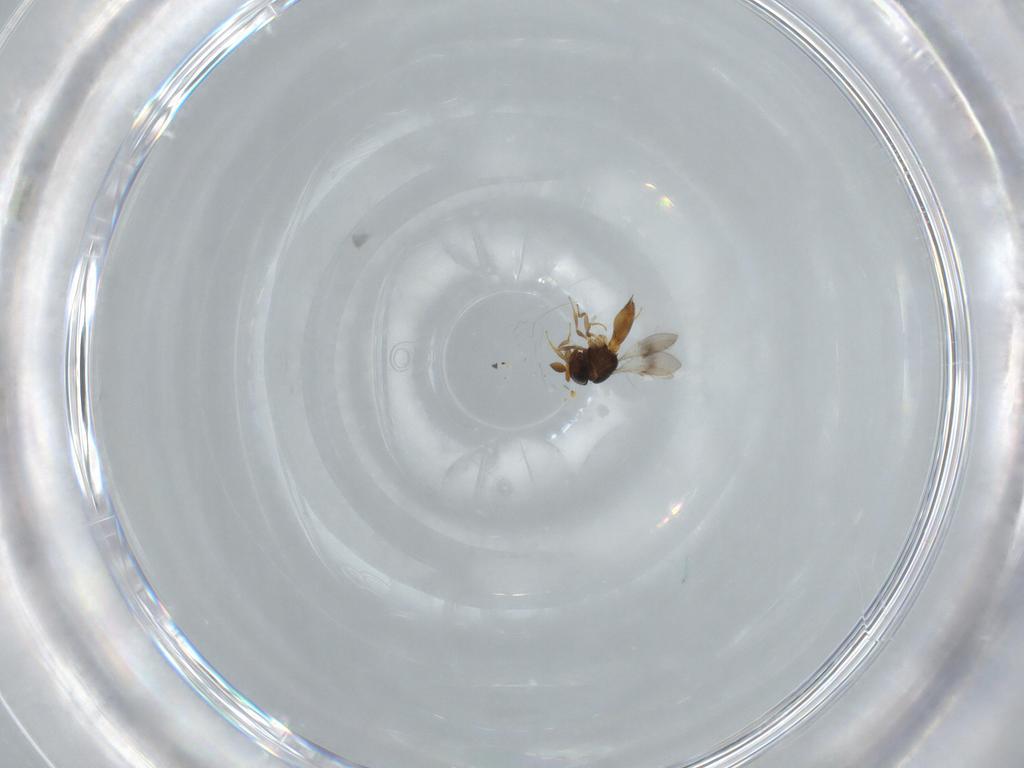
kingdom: Animalia
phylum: Arthropoda
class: Insecta
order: Hymenoptera
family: Scelionidae
